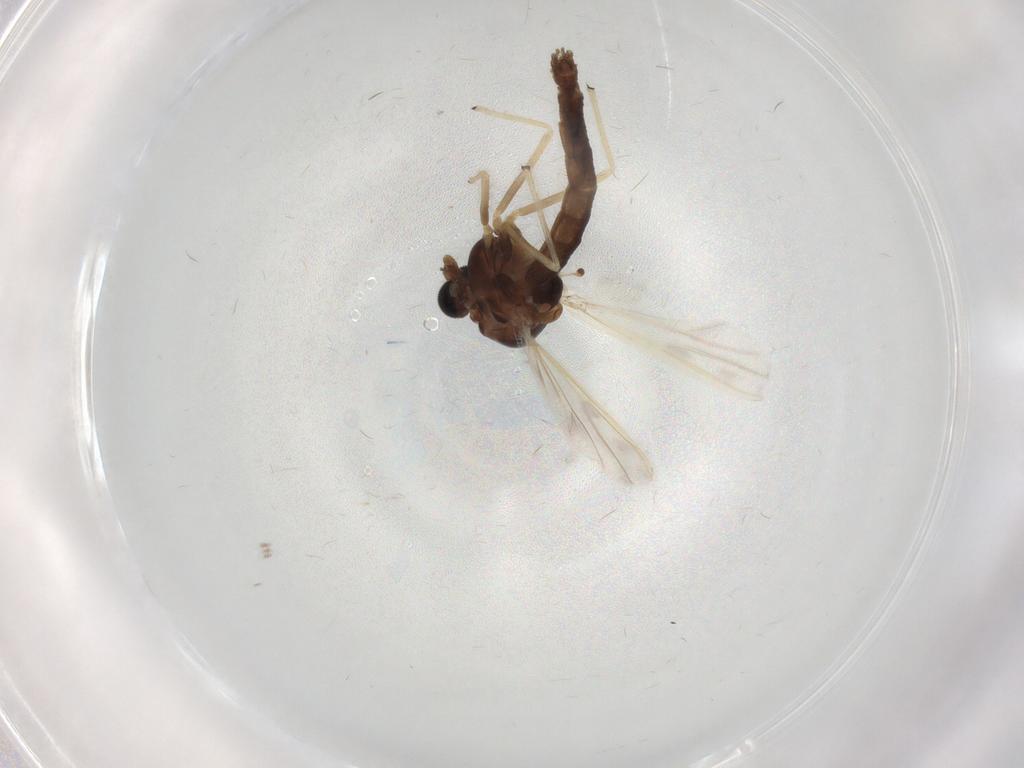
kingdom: Animalia
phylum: Arthropoda
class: Insecta
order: Diptera
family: Chironomidae
